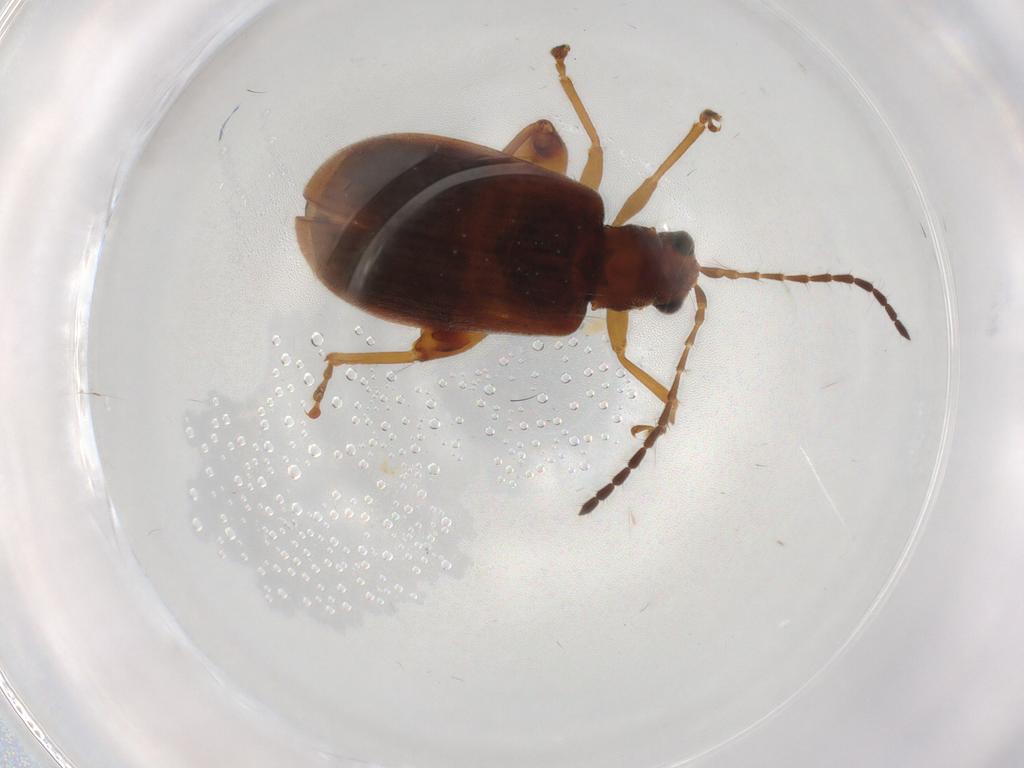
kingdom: Animalia
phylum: Arthropoda
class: Insecta
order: Coleoptera
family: Chrysomelidae
